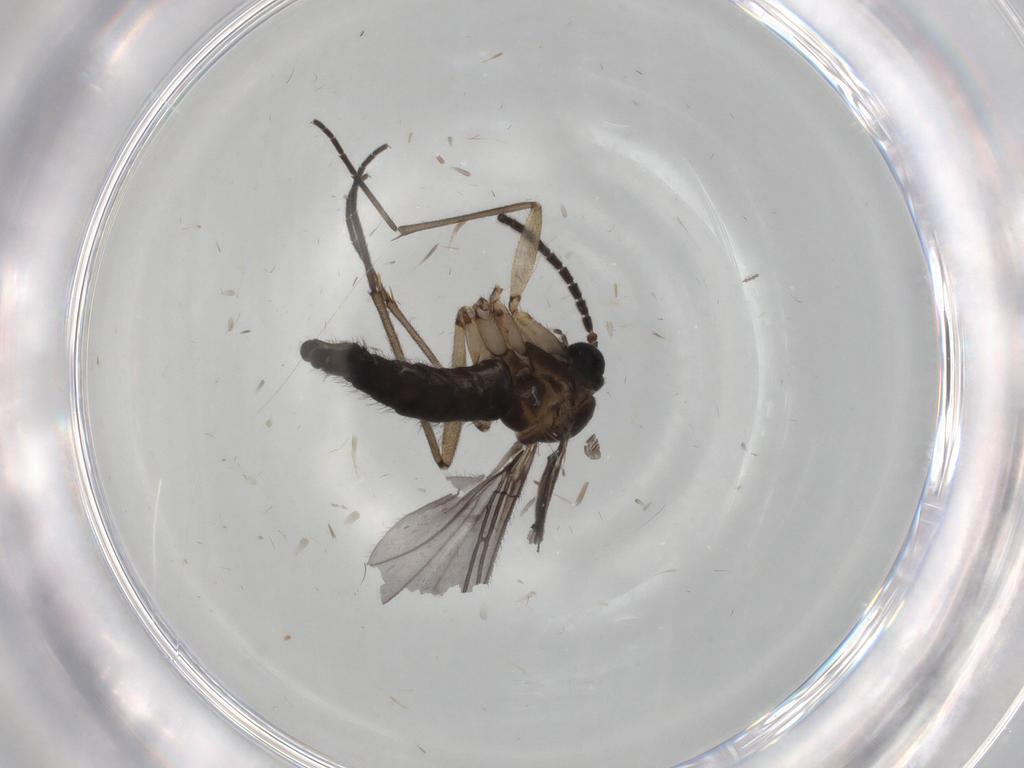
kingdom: Animalia
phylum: Arthropoda
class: Insecta
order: Diptera
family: Sciaridae
